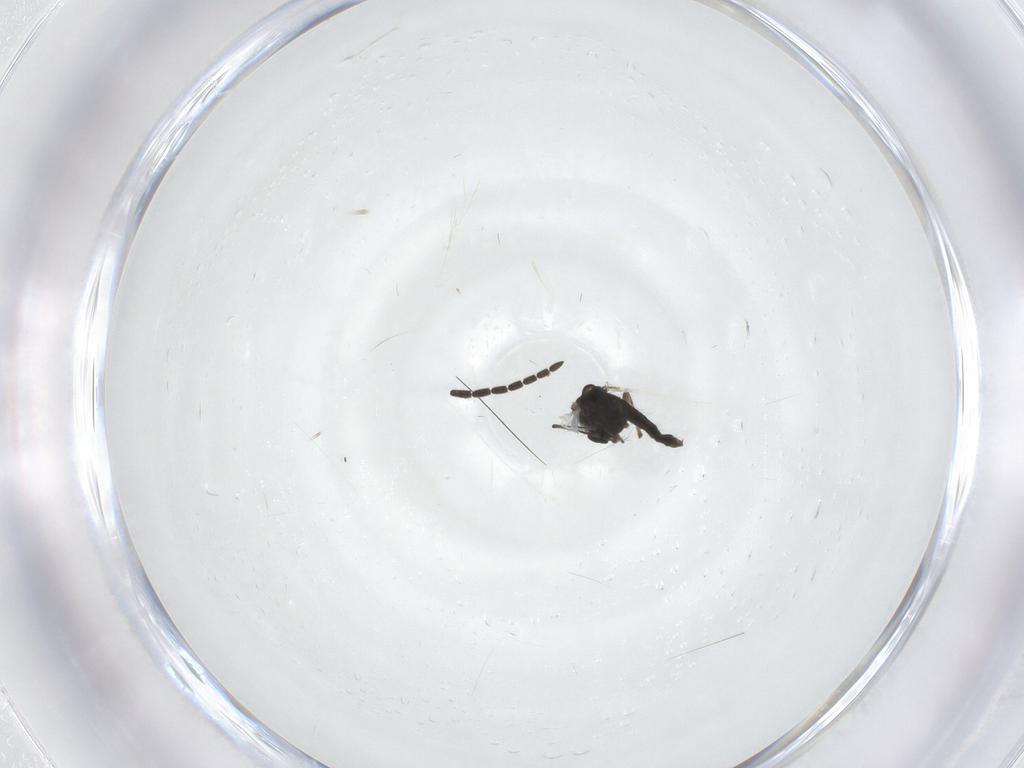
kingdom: Animalia
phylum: Arthropoda
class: Insecta
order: Diptera
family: Chironomidae
